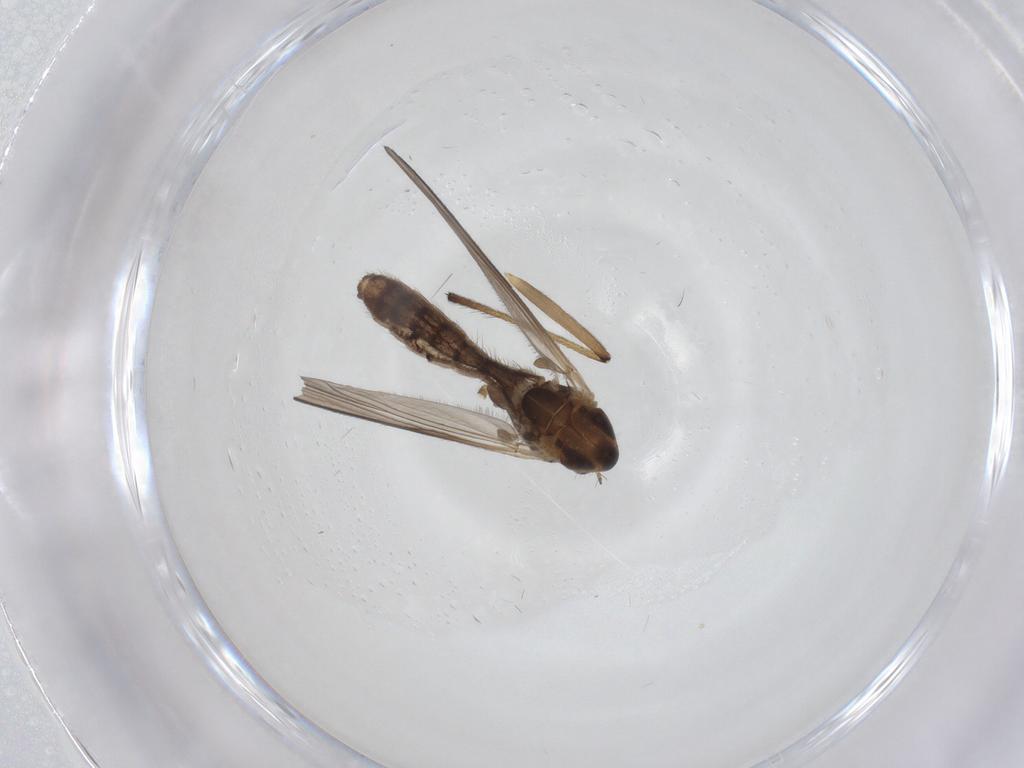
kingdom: Animalia
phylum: Arthropoda
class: Insecta
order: Diptera
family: Chironomidae
